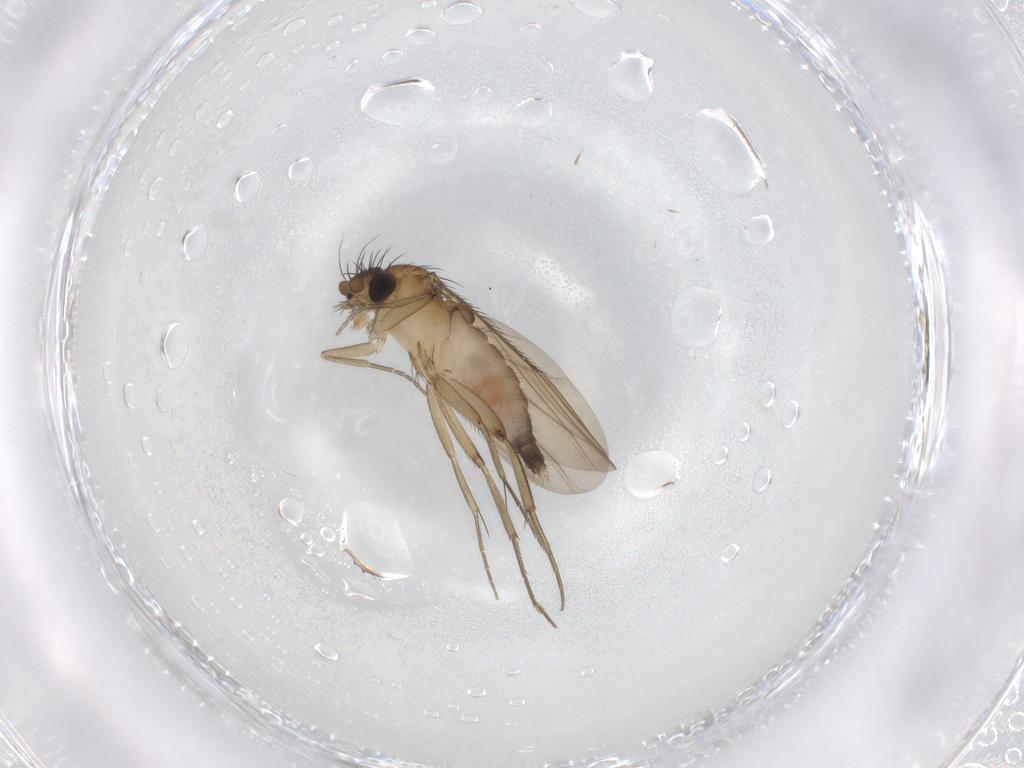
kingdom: Animalia
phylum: Arthropoda
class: Insecta
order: Diptera
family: Phoridae
